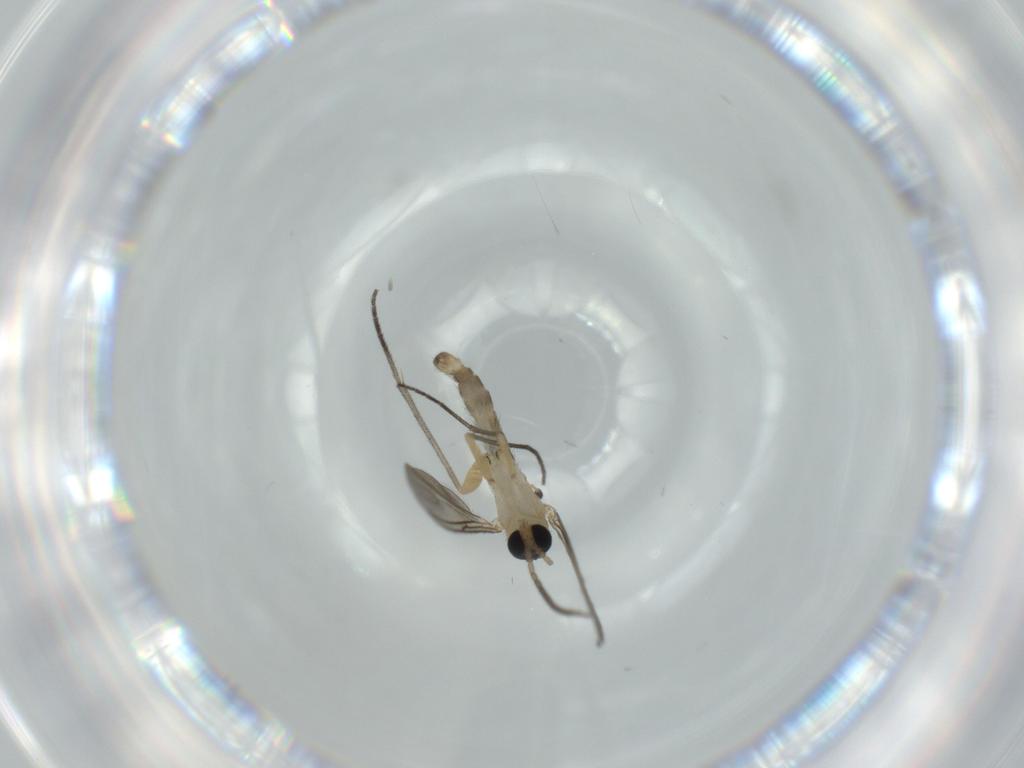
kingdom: Animalia
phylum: Arthropoda
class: Insecta
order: Diptera
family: Sciaridae
